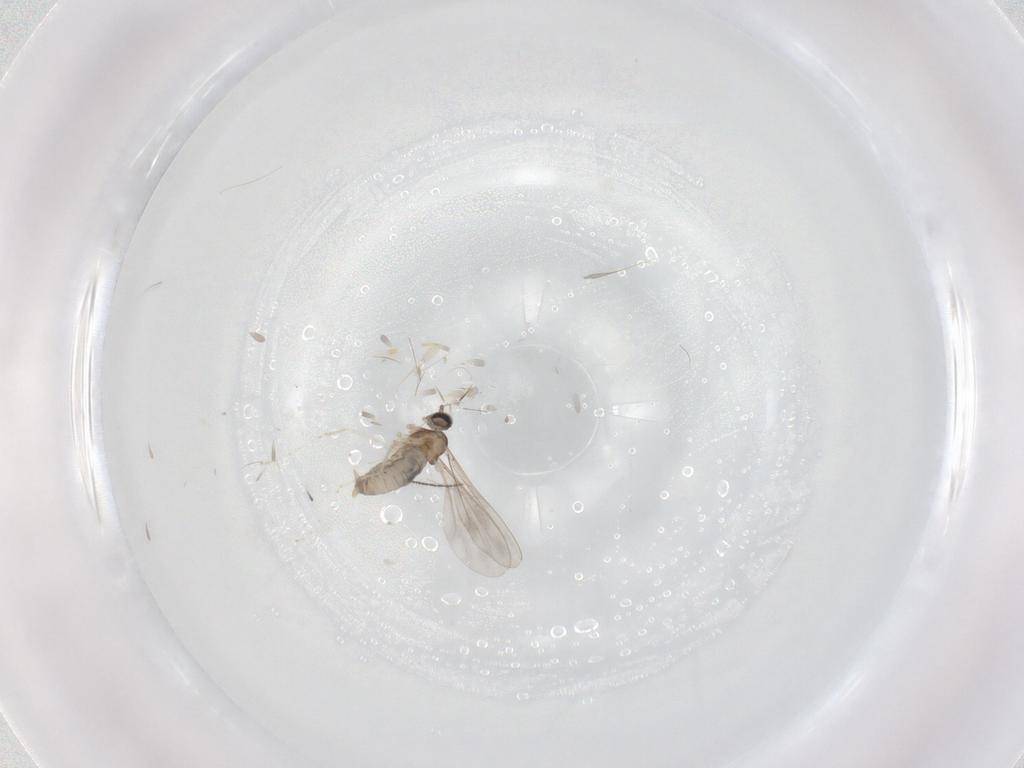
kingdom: Animalia
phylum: Arthropoda
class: Insecta
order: Diptera
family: Cecidomyiidae
